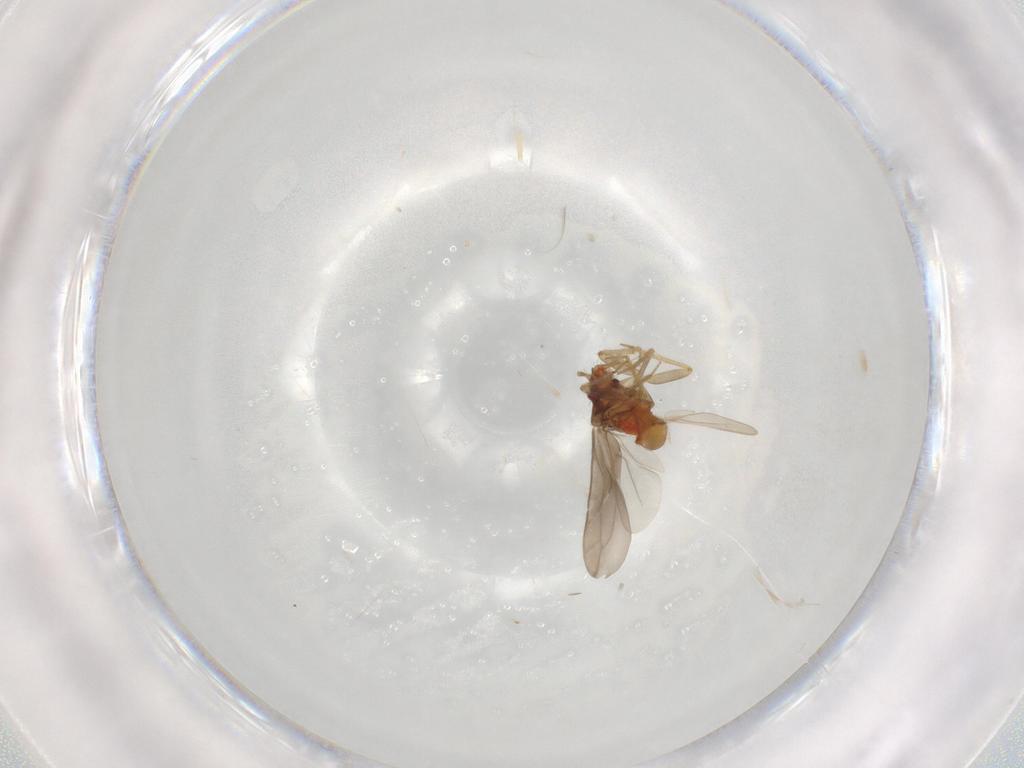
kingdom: Animalia
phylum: Arthropoda
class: Insecta
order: Hemiptera
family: Ceratocombidae
